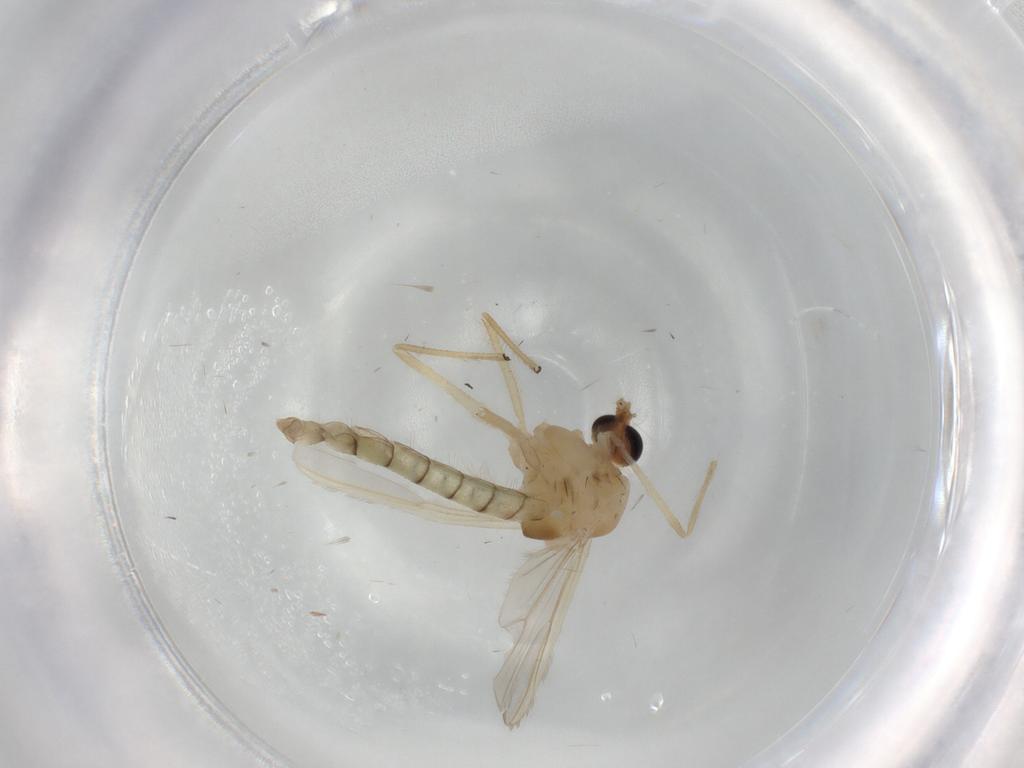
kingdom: Animalia
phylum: Arthropoda
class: Insecta
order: Diptera
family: Chironomidae
